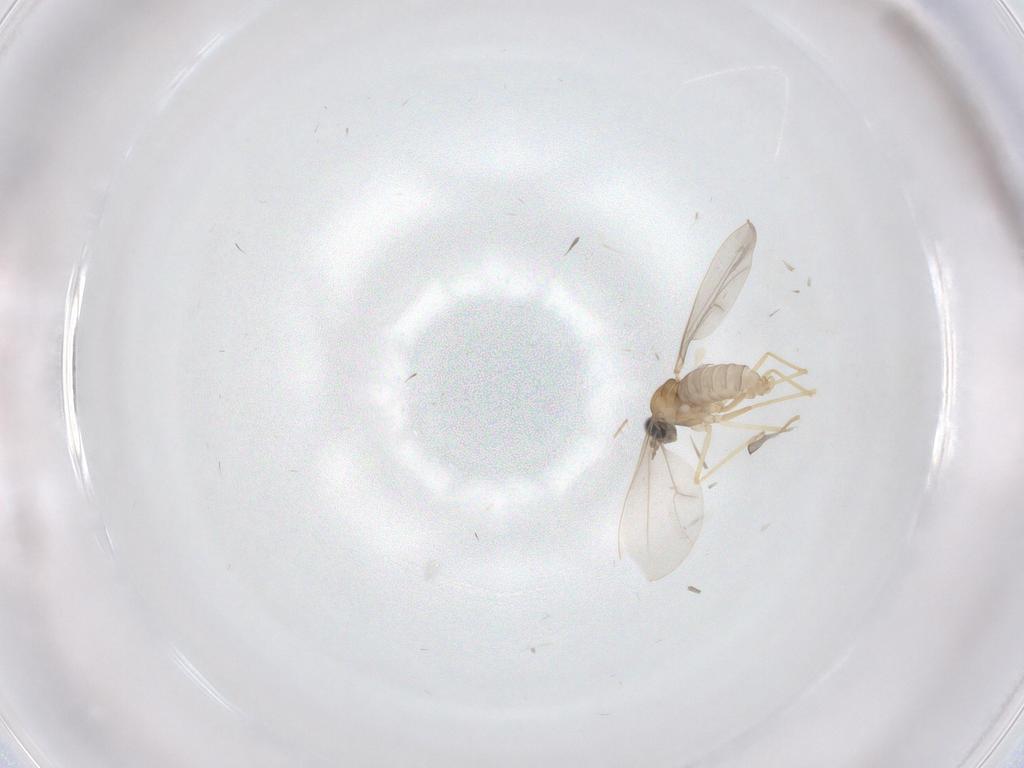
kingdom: Animalia
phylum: Arthropoda
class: Insecta
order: Diptera
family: Cecidomyiidae
